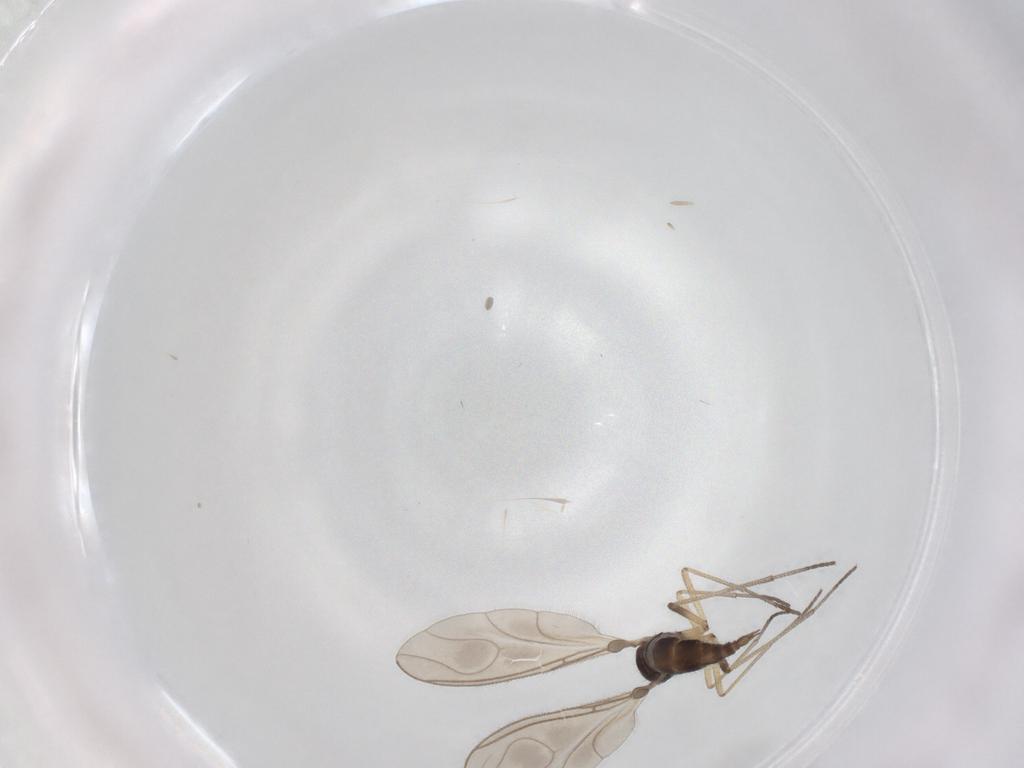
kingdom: Animalia
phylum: Arthropoda
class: Insecta
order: Diptera
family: Sciaridae
